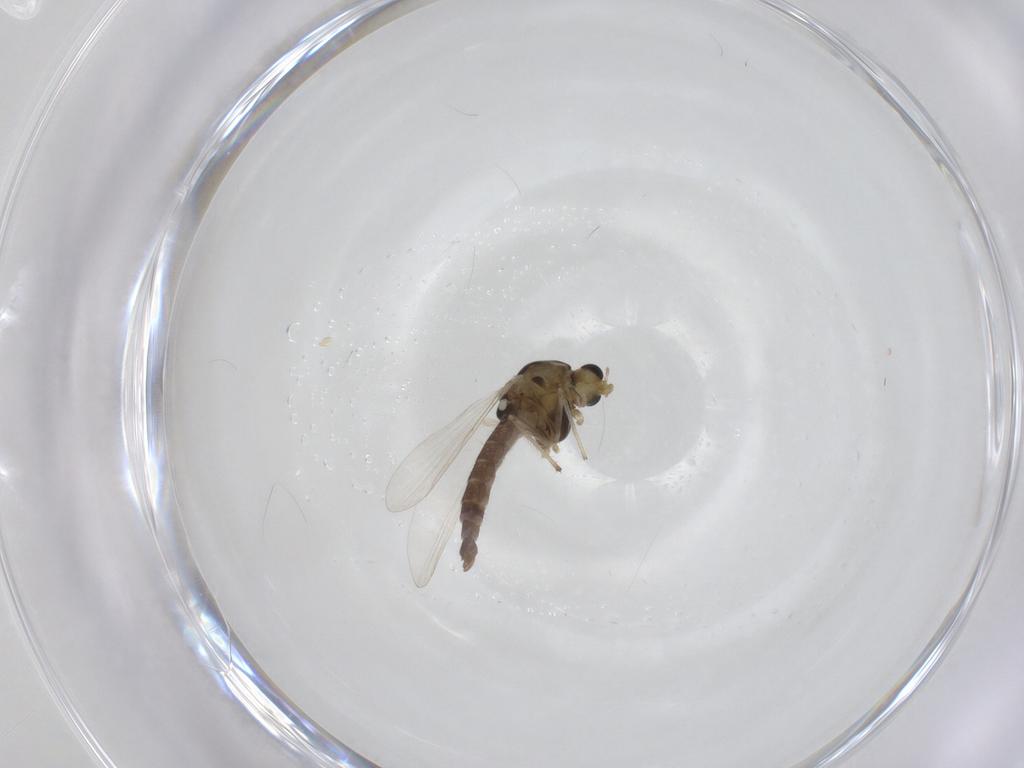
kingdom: Animalia
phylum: Arthropoda
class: Insecta
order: Diptera
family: Chironomidae
